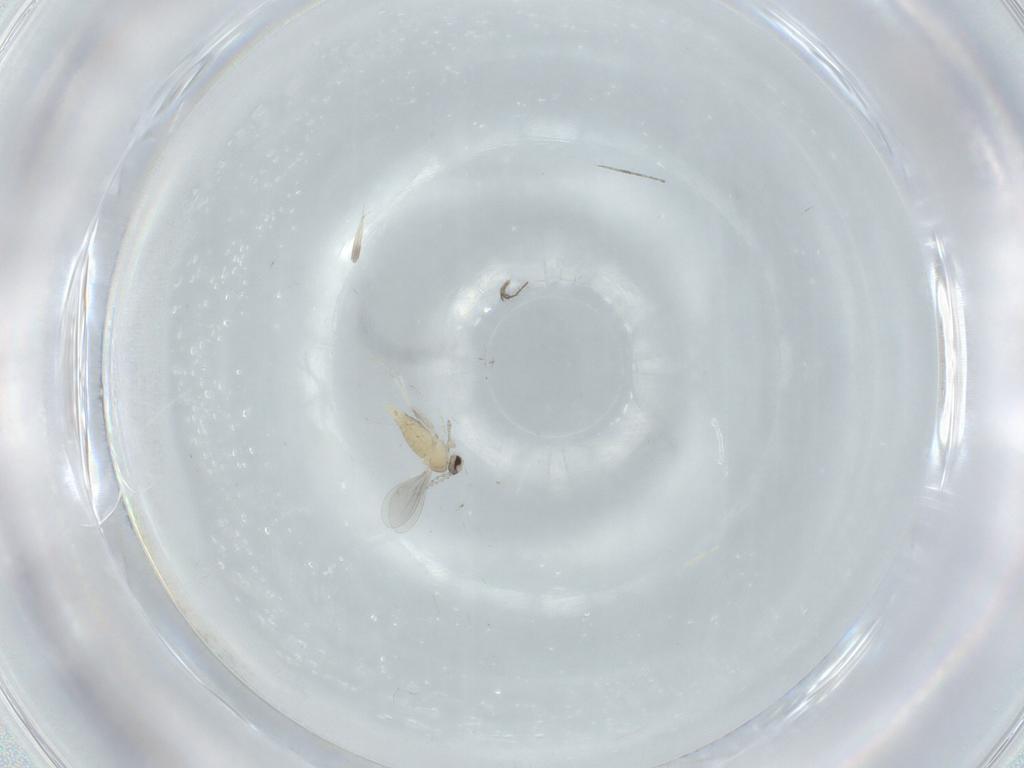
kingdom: Animalia
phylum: Arthropoda
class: Insecta
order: Diptera
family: Cecidomyiidae
